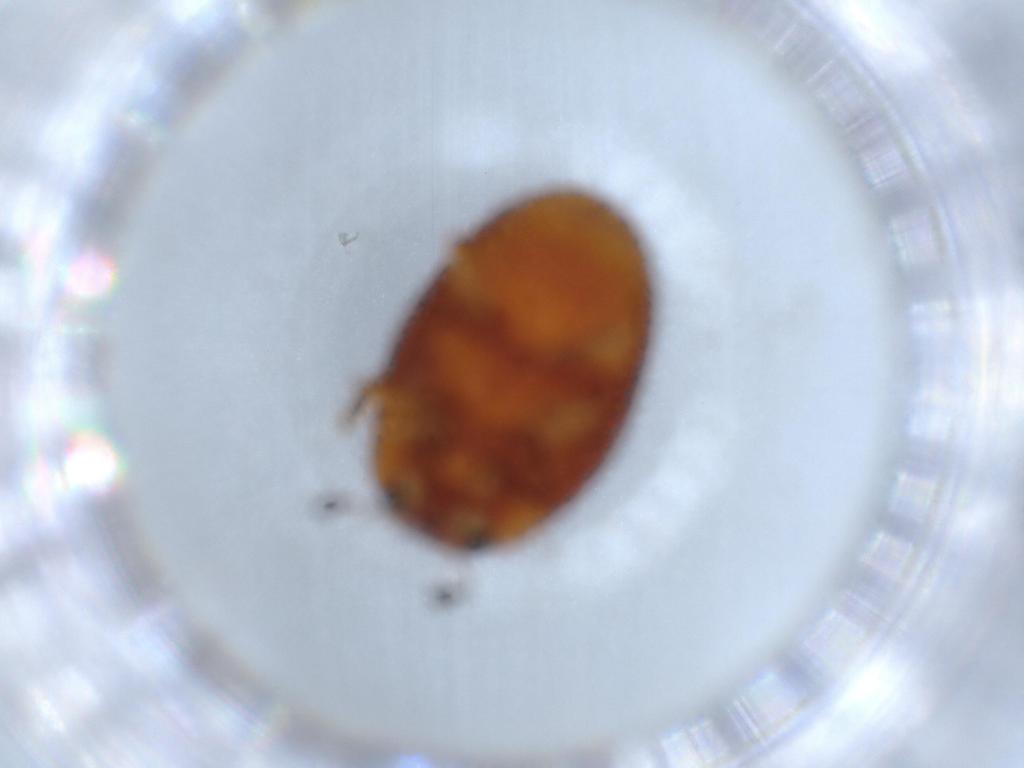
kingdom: Animalia
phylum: Arthropoda
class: Insecta
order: Coleoptera
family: Erotylidae
